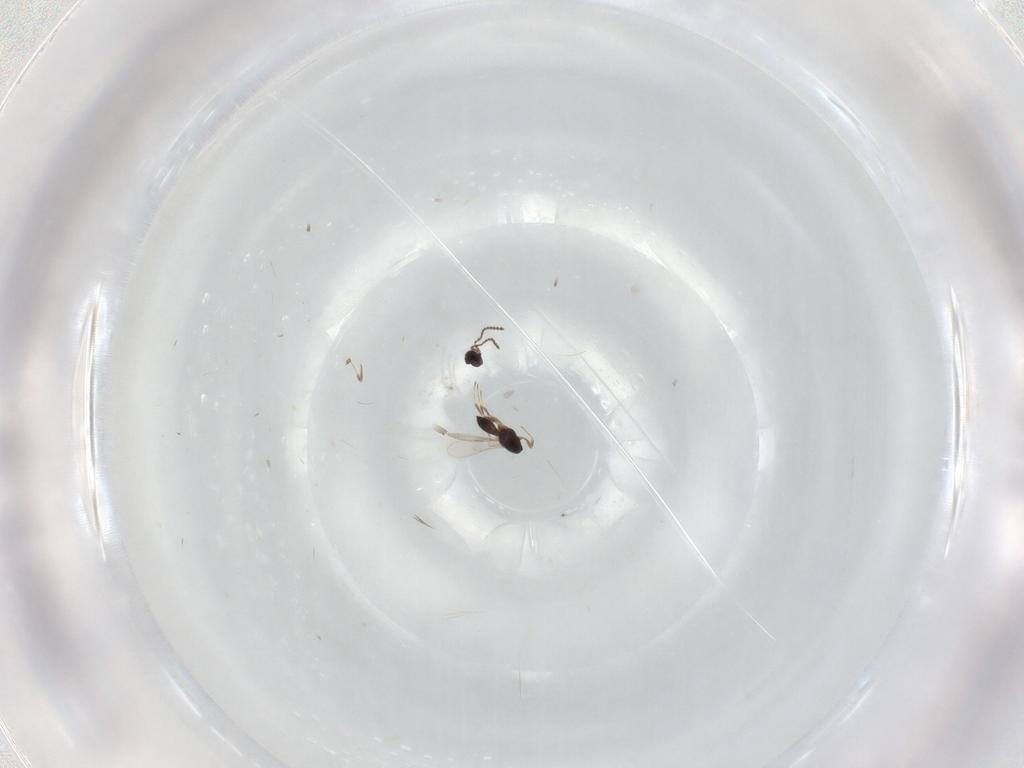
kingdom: Animalia
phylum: Arthropoda
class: Insecta
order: Hymenoptera
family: Scelionidae
